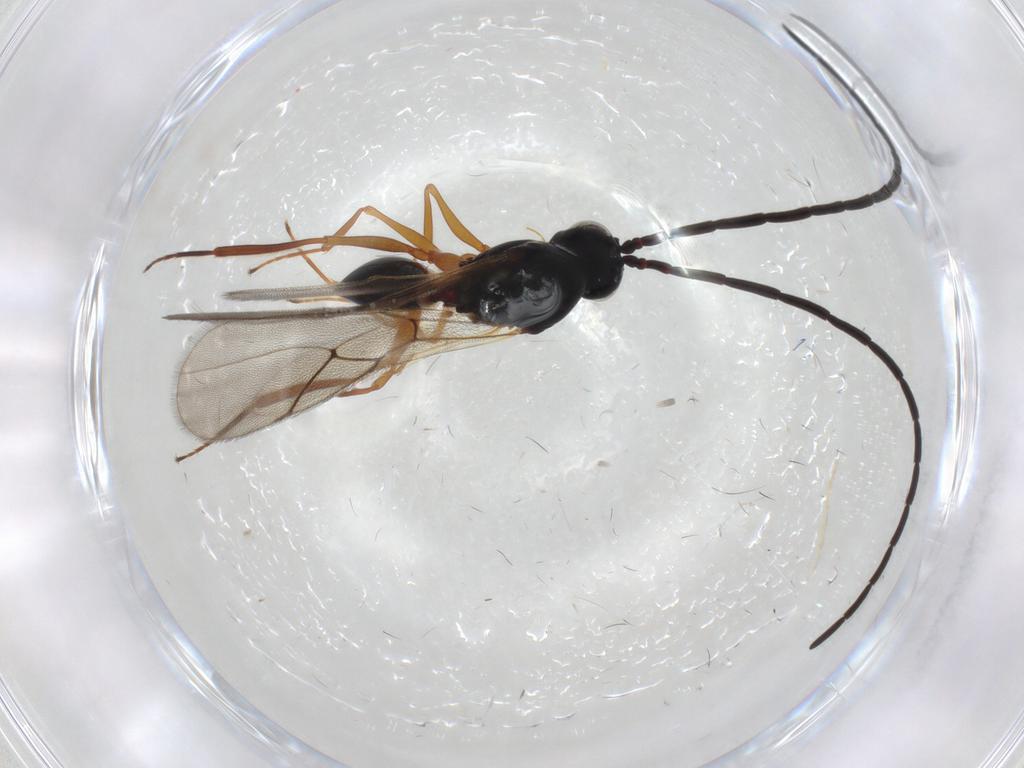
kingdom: Animalia
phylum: Arthropoda
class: Insecta
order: Hymenoptera
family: Figitidae
